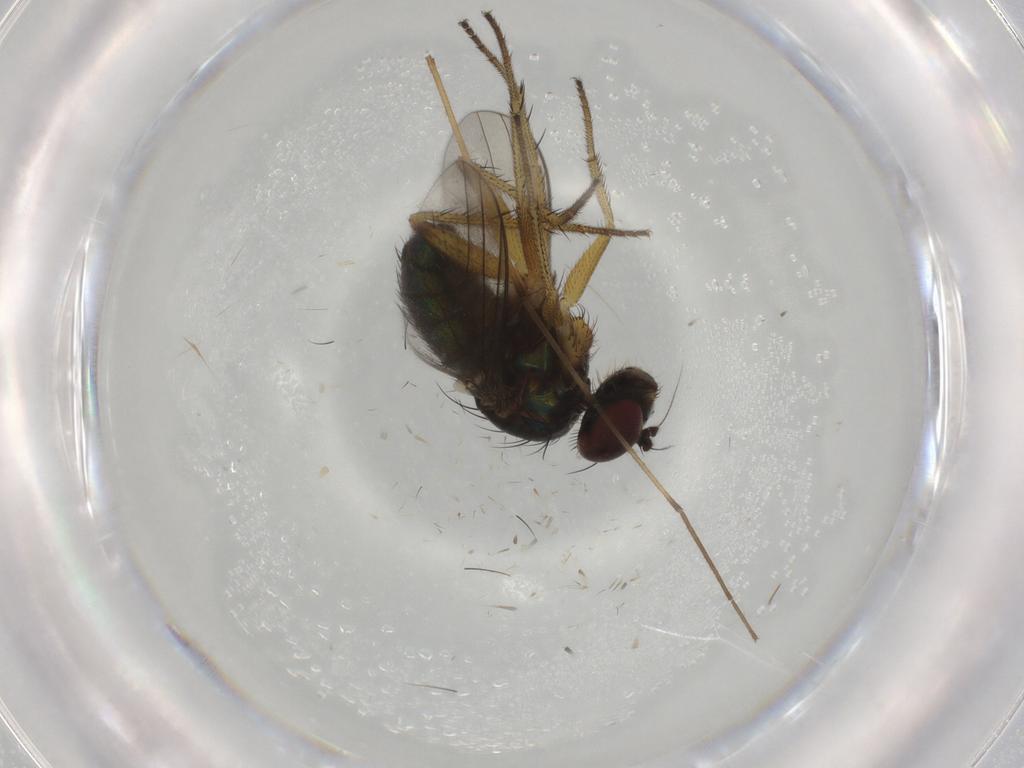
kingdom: Animalia
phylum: Arthropoda
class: Insecta
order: Diptera
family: Dolichopodidae
